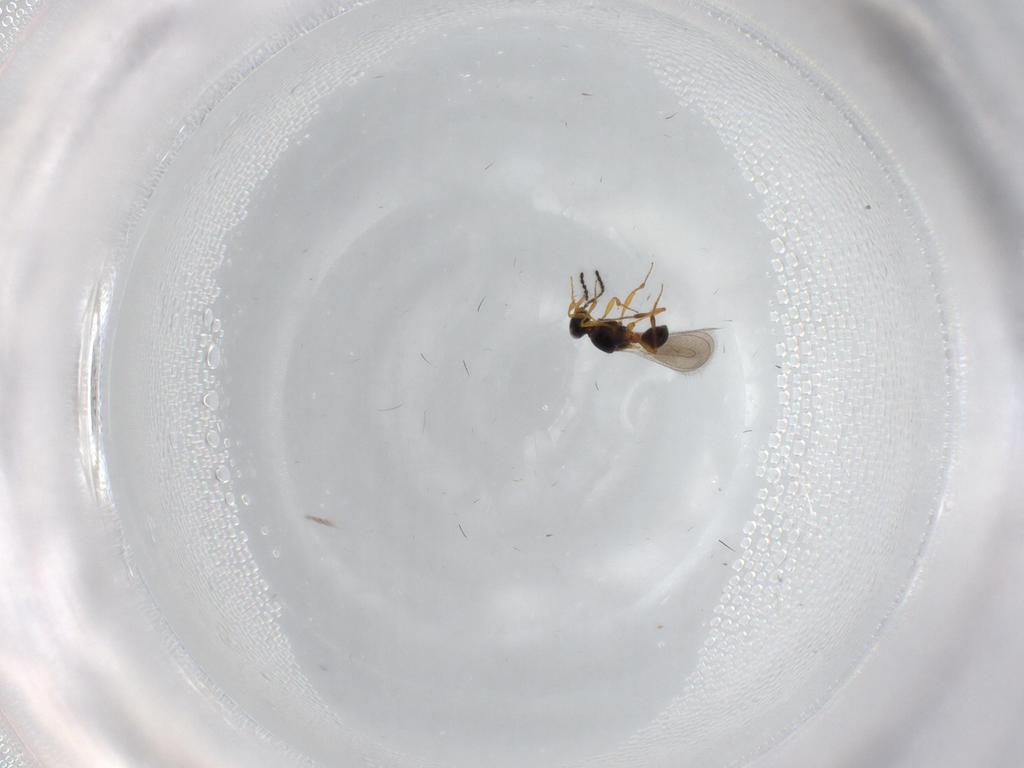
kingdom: Animalia
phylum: Arthropoda
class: Insecta
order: Hymenoptera
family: Platygastridae
